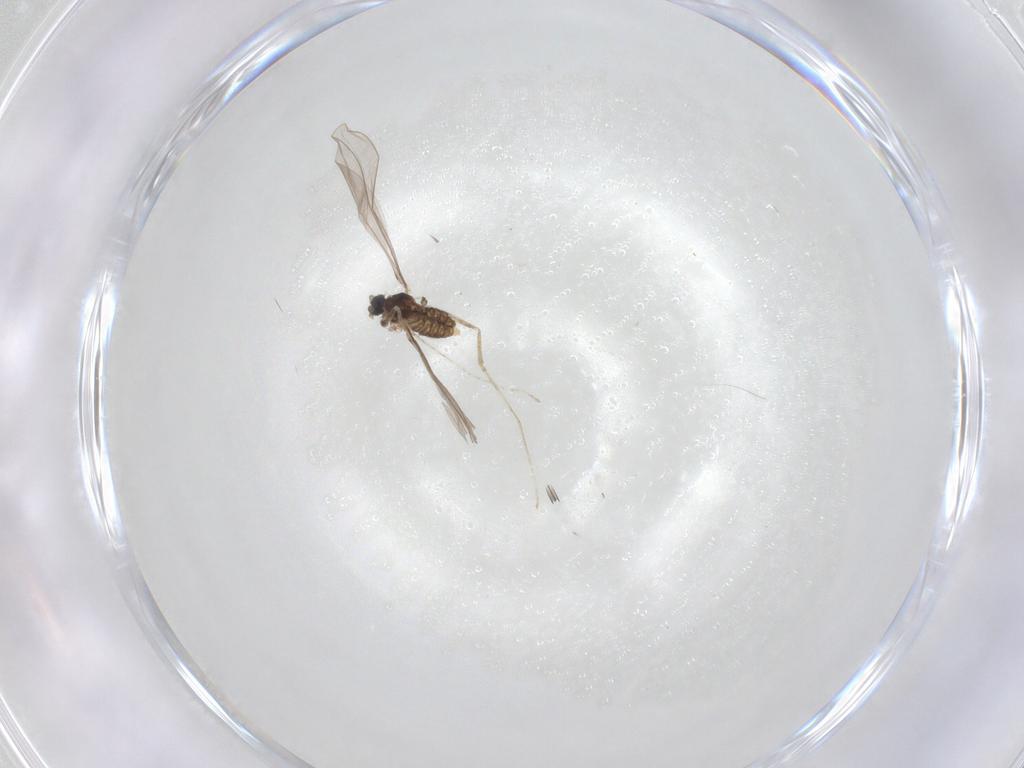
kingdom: Animalia
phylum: Arthropoda
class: Insecta
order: Diptera
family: Cecidomyiidae
